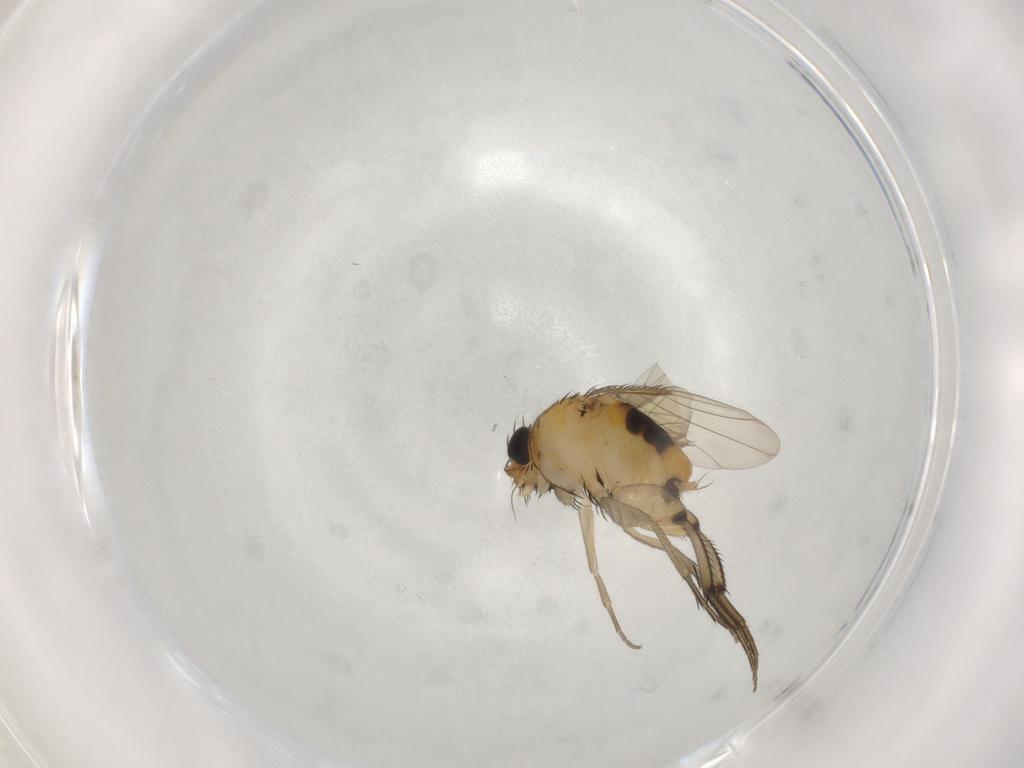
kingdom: Animalia
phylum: Arthropoda
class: Insecta
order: Diptera
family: Phoridae
